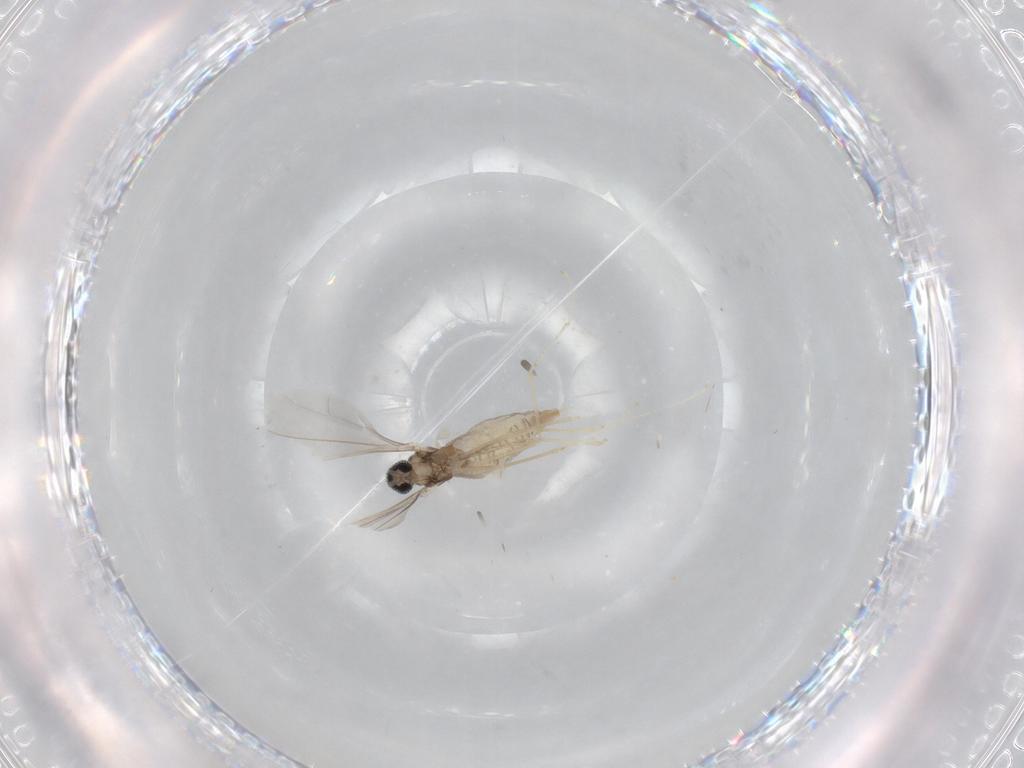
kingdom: Animalia
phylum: Arthropoda
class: Insecta
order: Diptera
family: Cecidomyiidae
